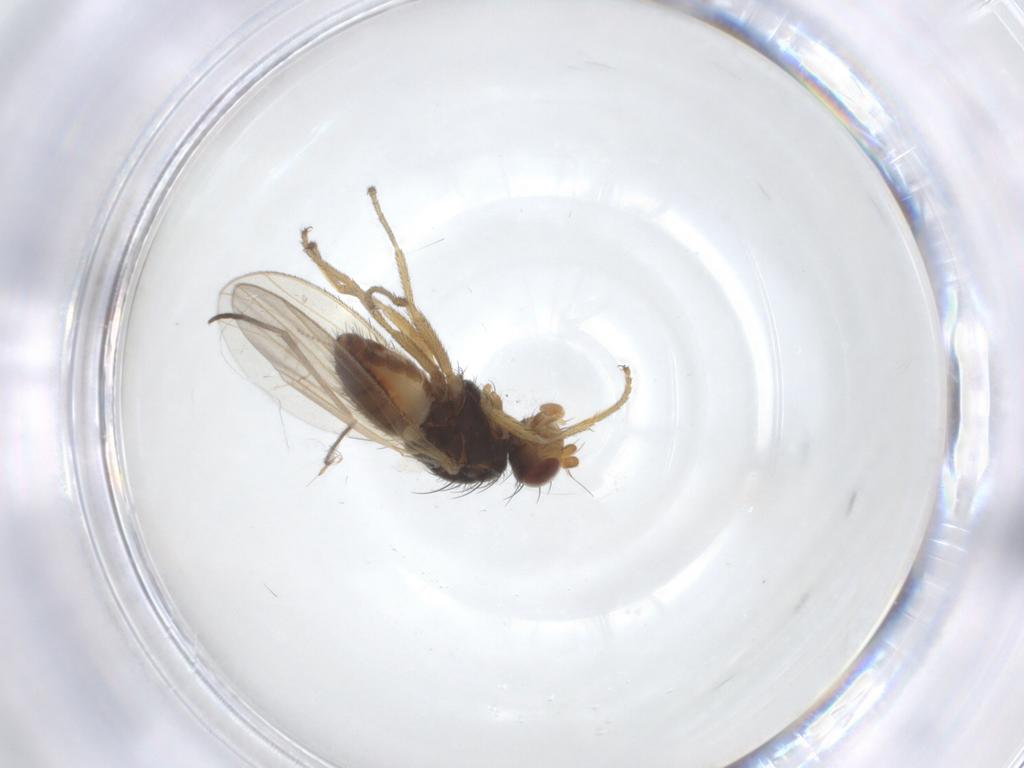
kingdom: Animalia
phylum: Arthropoda
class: Insecta
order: Diptera
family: Heleomyzidae
